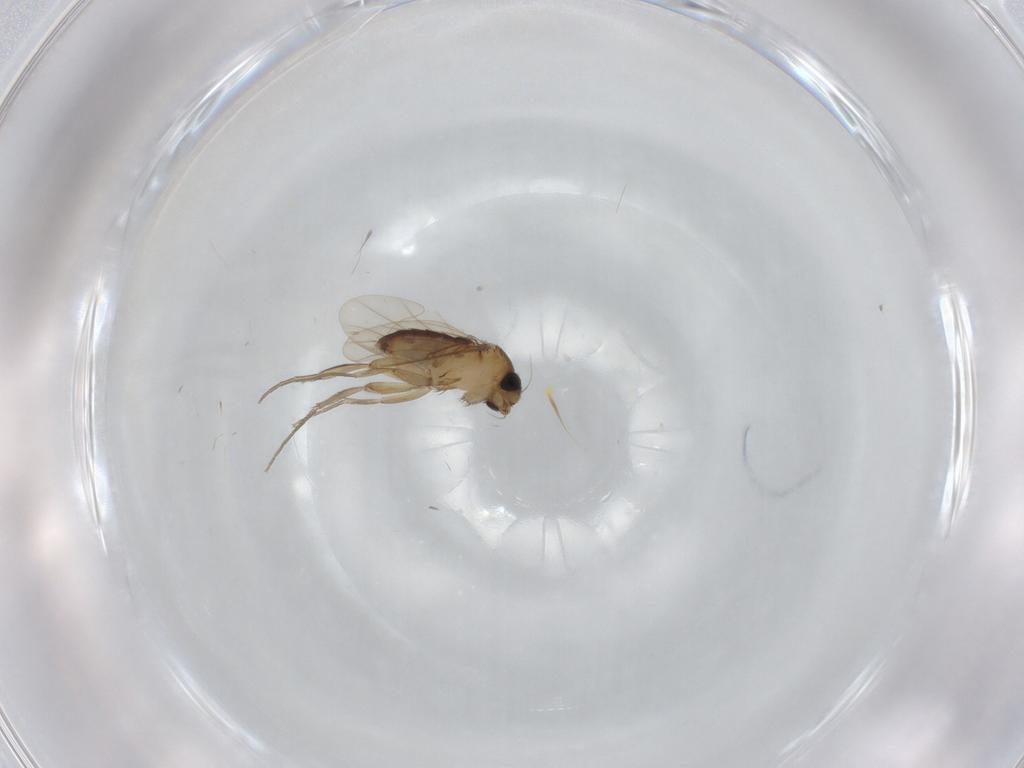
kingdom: Animalia
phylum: Arthropoda
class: Insecta
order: Diptera
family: Phoridae
